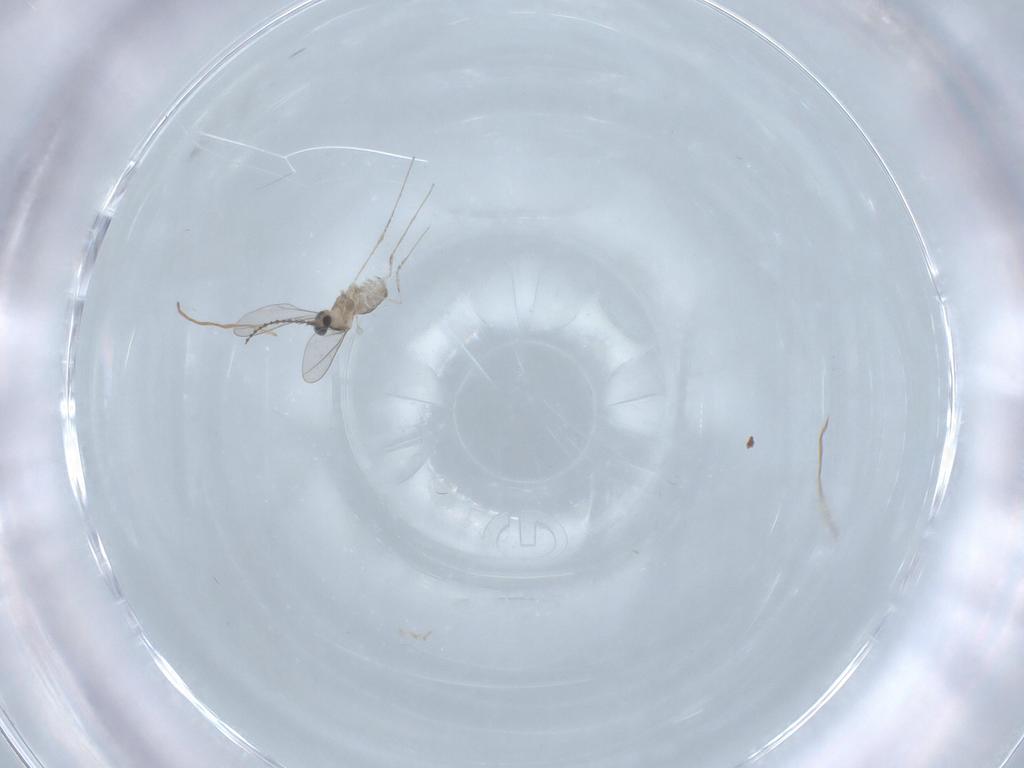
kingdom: Animalia
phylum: Arthropoda
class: Insecta
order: Diptera
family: Cecidomyiidae
